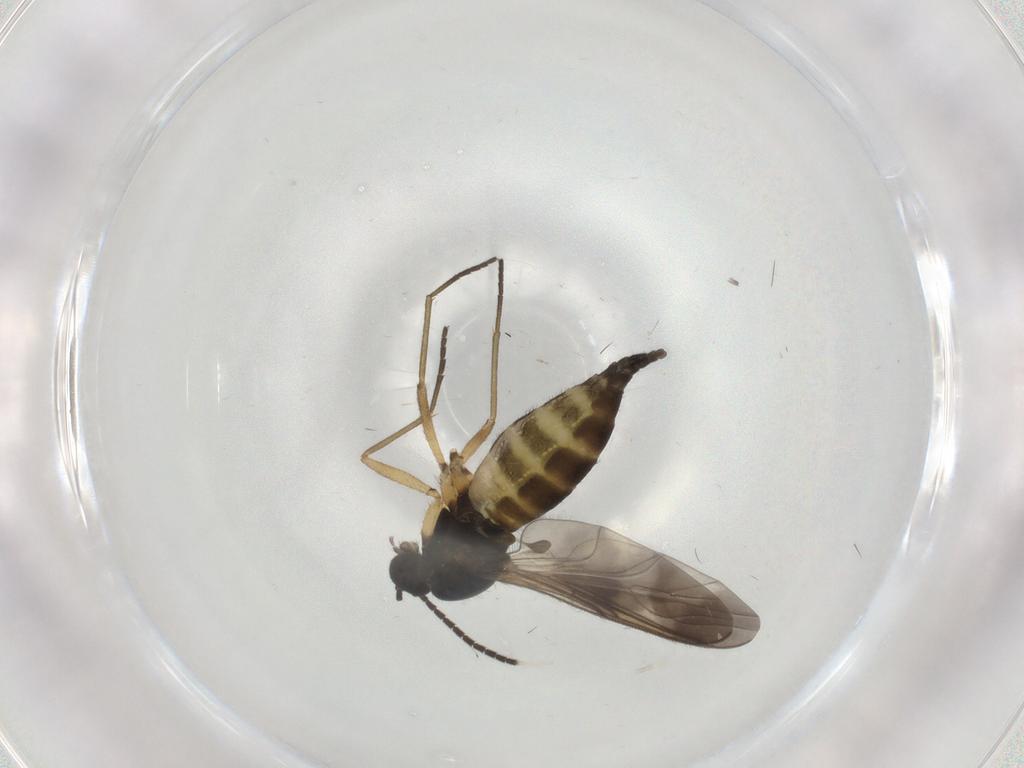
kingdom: Animalia
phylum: Arthropoda
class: Insecta
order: Diptera
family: Sciaridae
